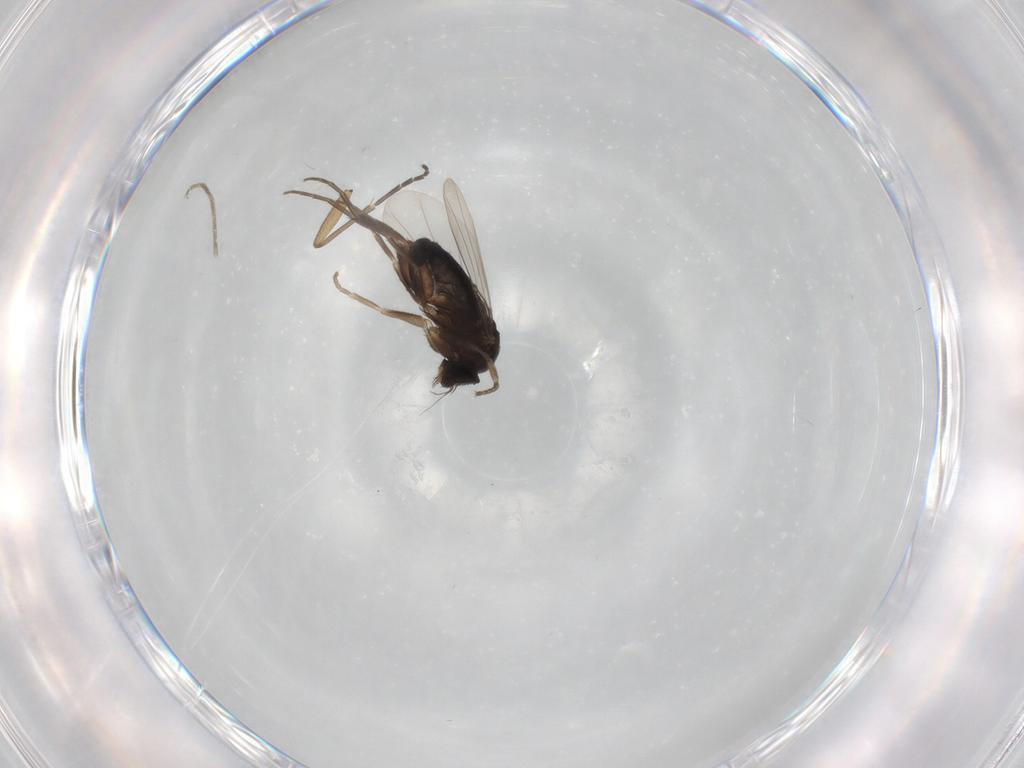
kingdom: Animalia
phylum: Arthropoda
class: Insecta
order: Diptera
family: Phoridae
